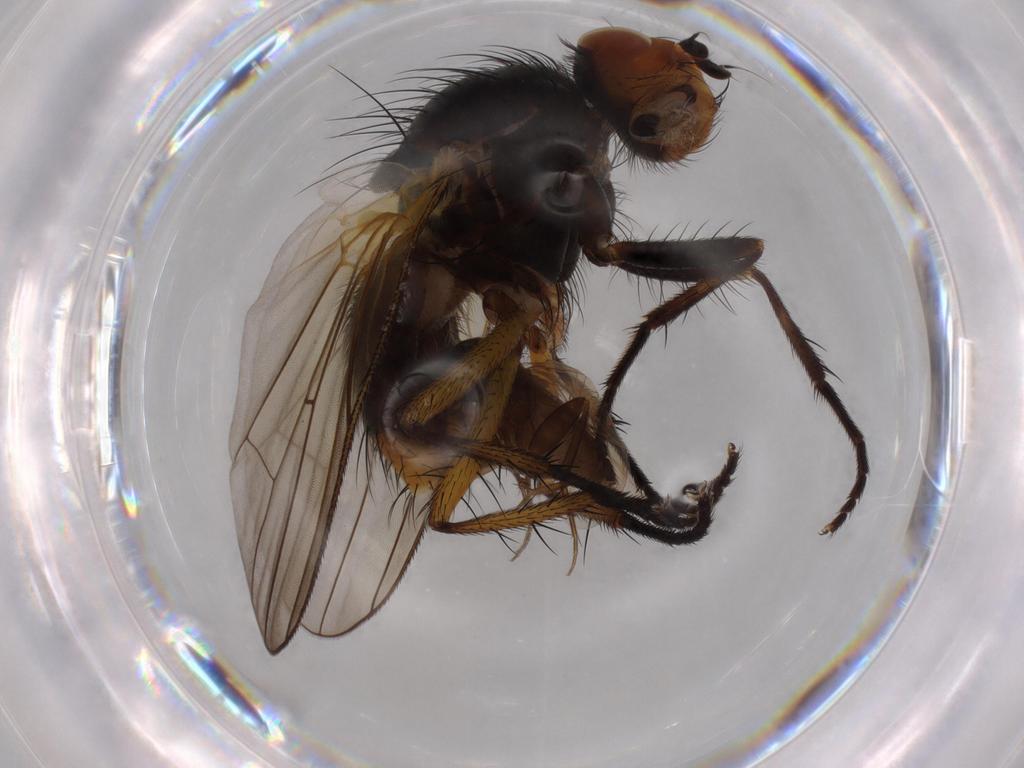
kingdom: Animalia
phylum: Arthropoda
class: Insecta
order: Diptera
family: Anthomyiidae
